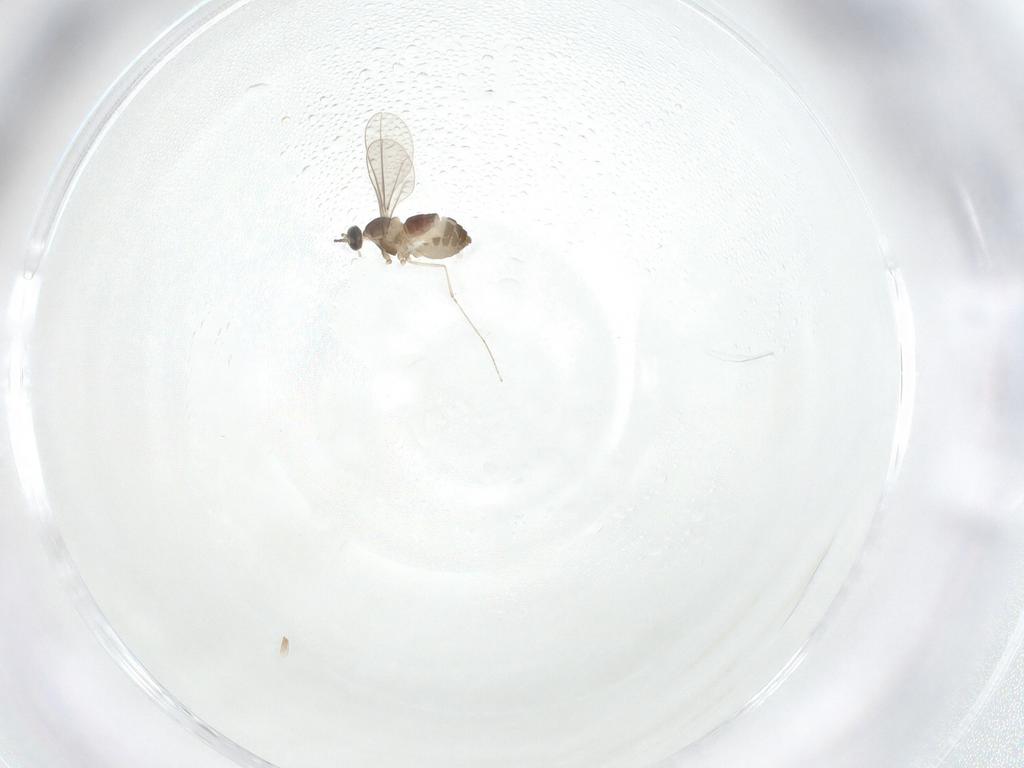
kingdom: Animalia
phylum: Arthropoda
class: Insecta
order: Diptera
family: Cecidomyiidae
